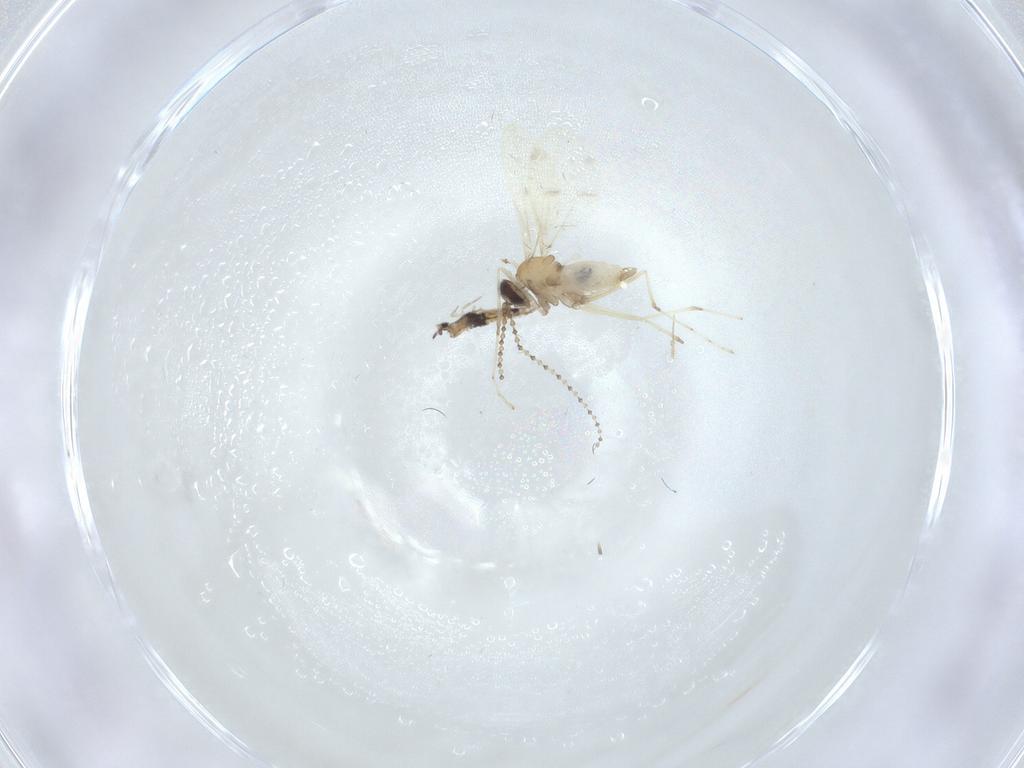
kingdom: Animalia
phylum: Arthropoda
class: Insecta
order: Diptera
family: Cecidomyiidae
